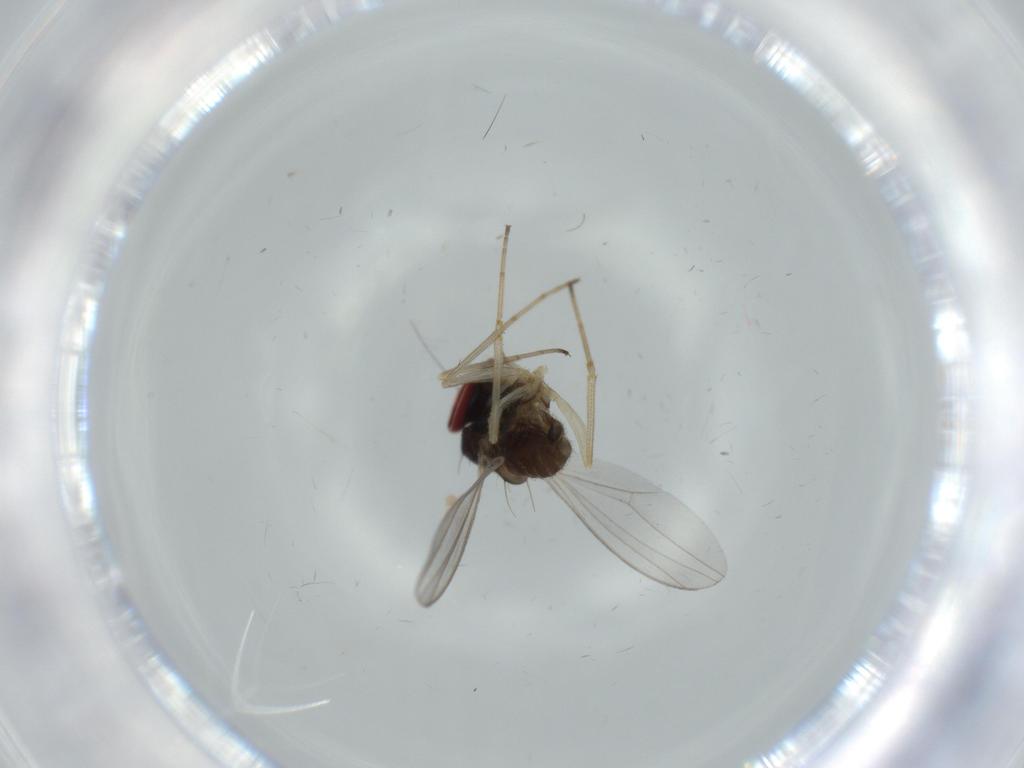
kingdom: Animalia
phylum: Arthropoda
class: Insecta
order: Diptera
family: Dolichopodidae
